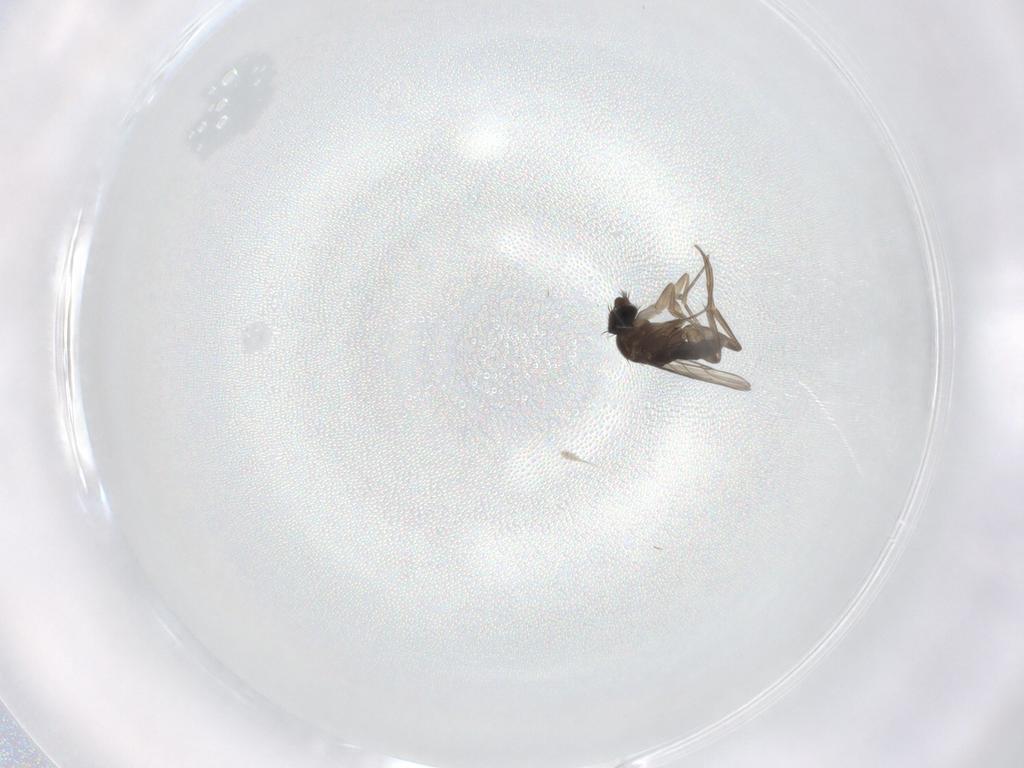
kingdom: Animalia
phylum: Arthropoda
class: Insecta
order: Diptera
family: Phoridae
